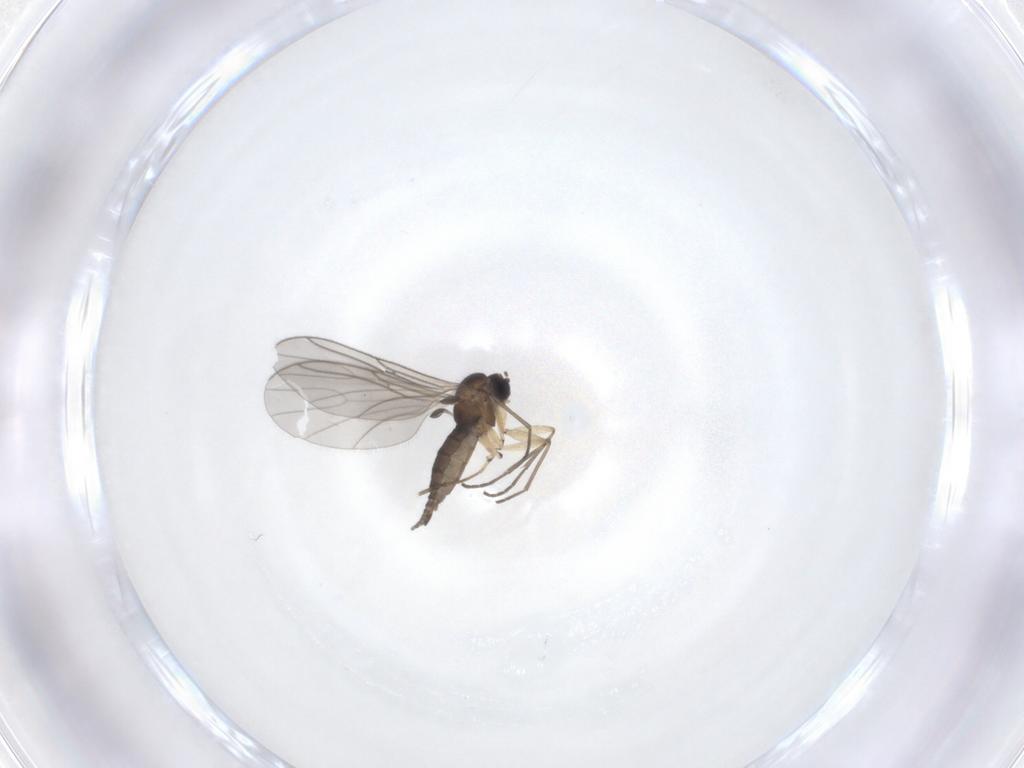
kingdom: Animalia
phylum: Arthropoda
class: Insecta
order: Diptera
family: Sciaridae
